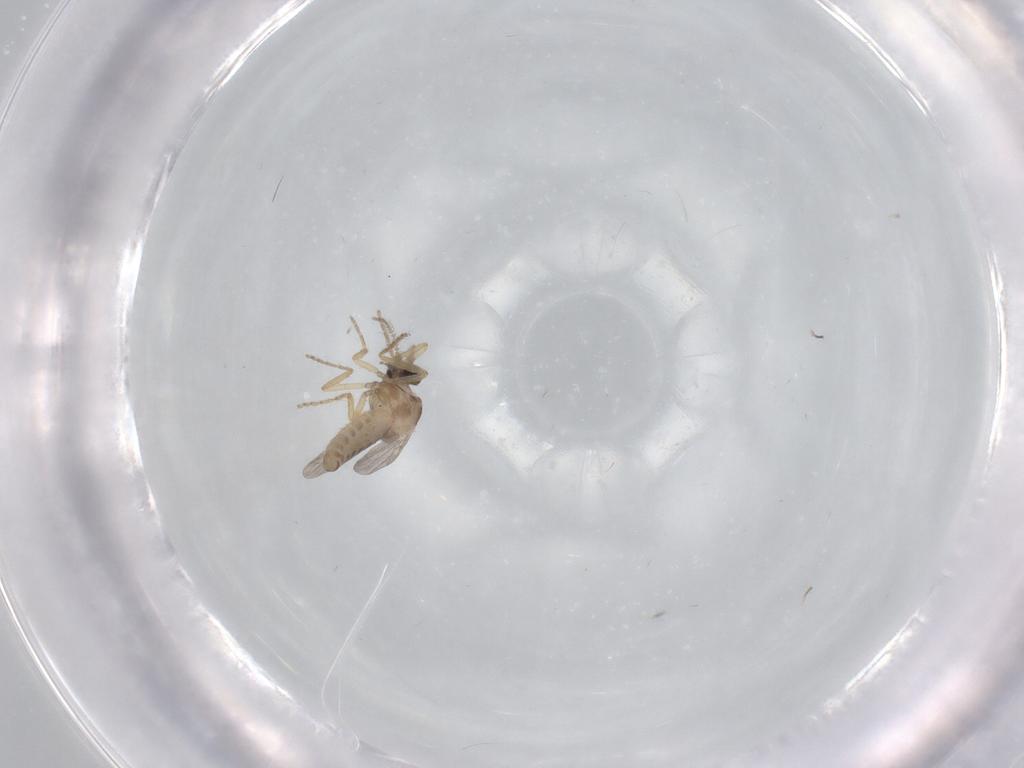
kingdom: Animalia
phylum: Arthropoda
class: Insecta
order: Diptera
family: Ceratopogonidae
